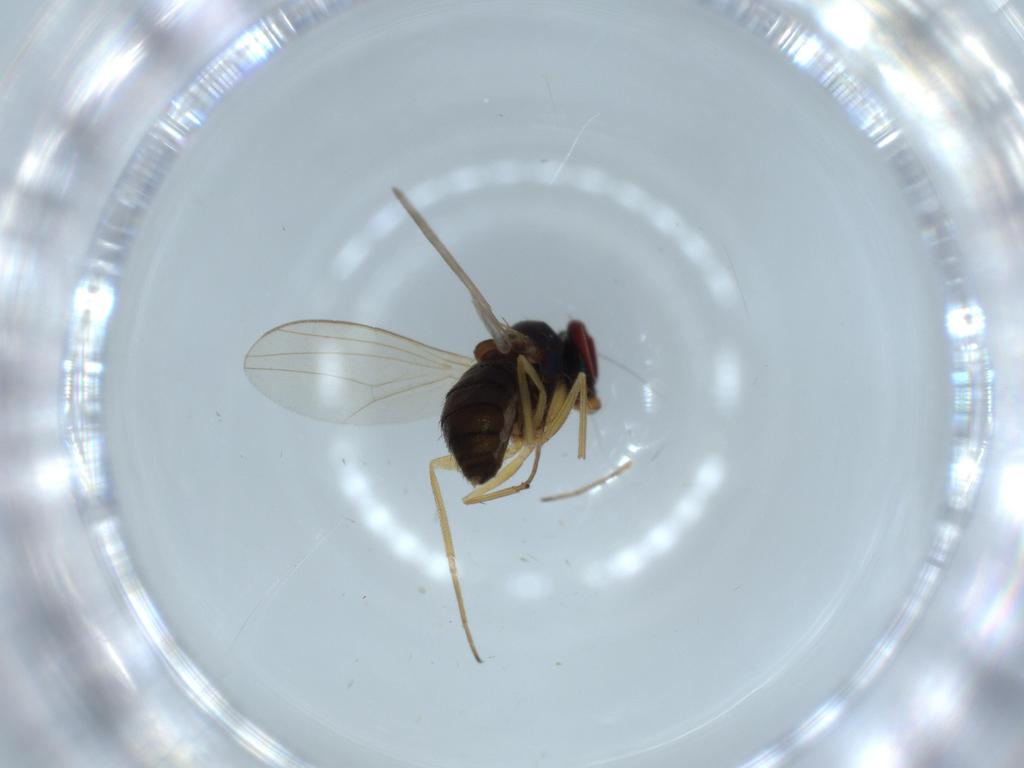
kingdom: Animalia
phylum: Arthropoda
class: Insecta
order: Diptera
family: Dolichopodidae
